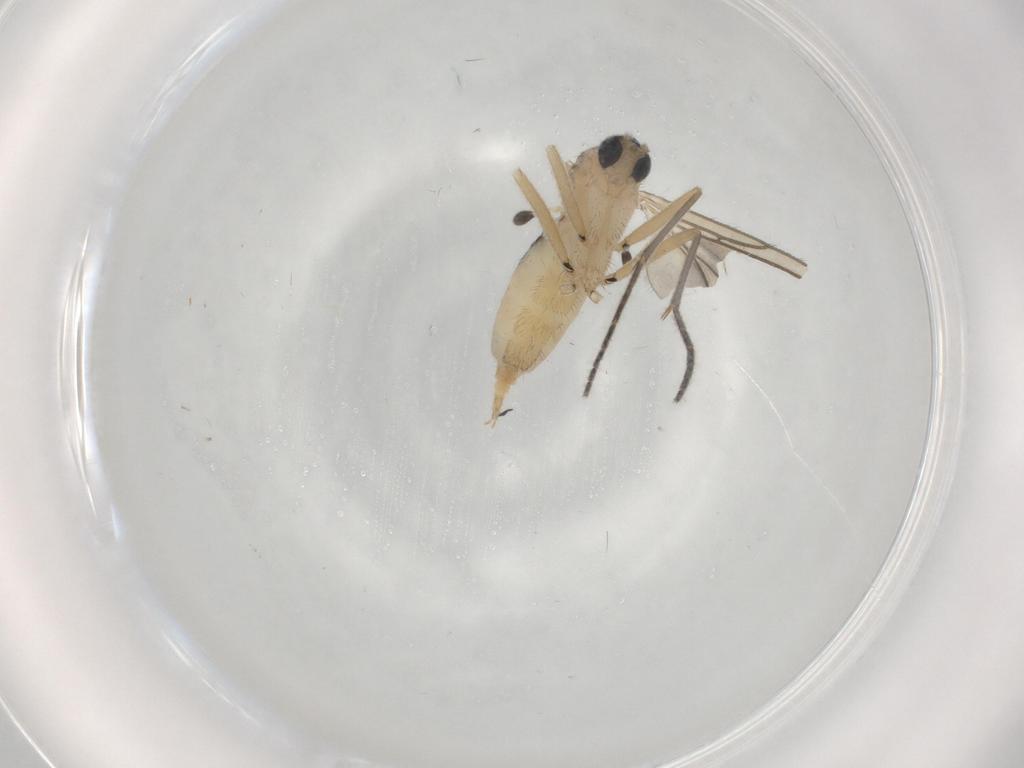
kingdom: Animalia
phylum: Arthropoda
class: Insecta
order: Diptera
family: Sciaridae
